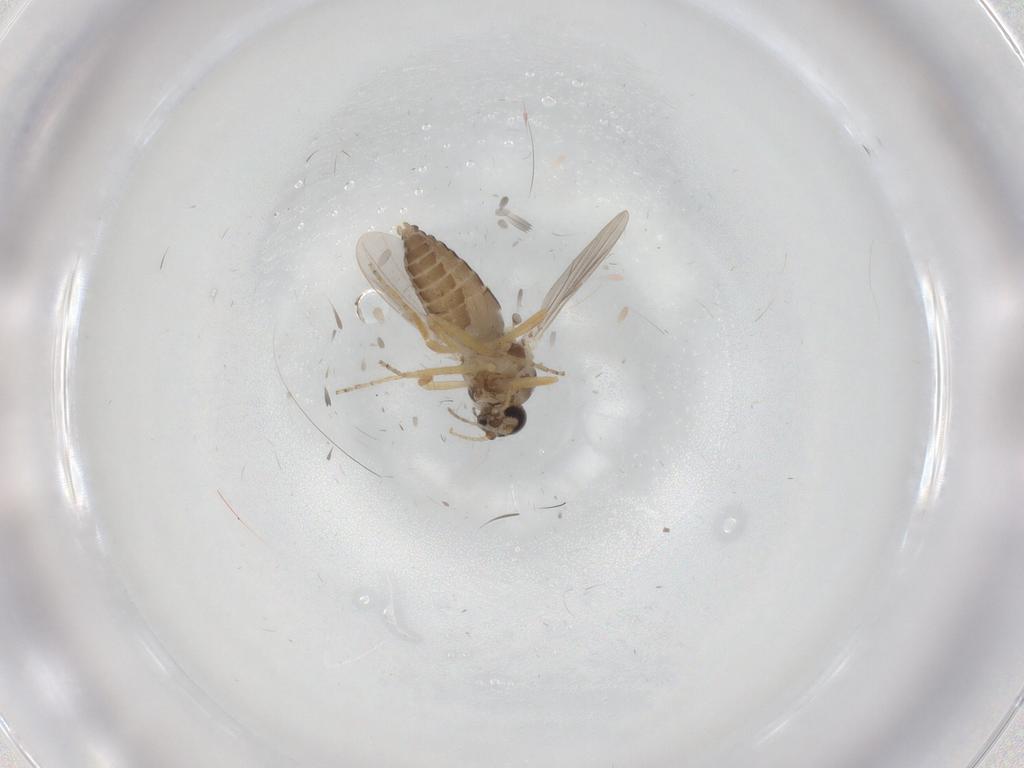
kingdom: Animalia
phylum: Arthropoda
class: Insecta
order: Diptera
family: Ceratopogonidae
